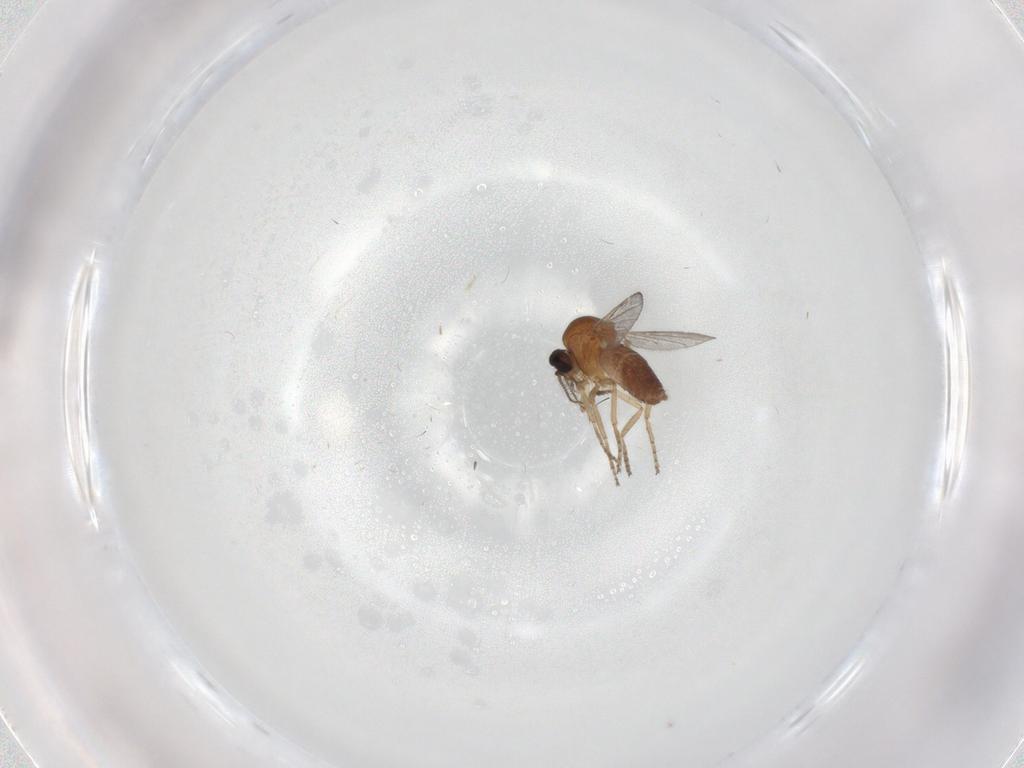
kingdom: Animalia
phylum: Arthropoda
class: Insecta
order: Diptera
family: Ceratopogonidae
